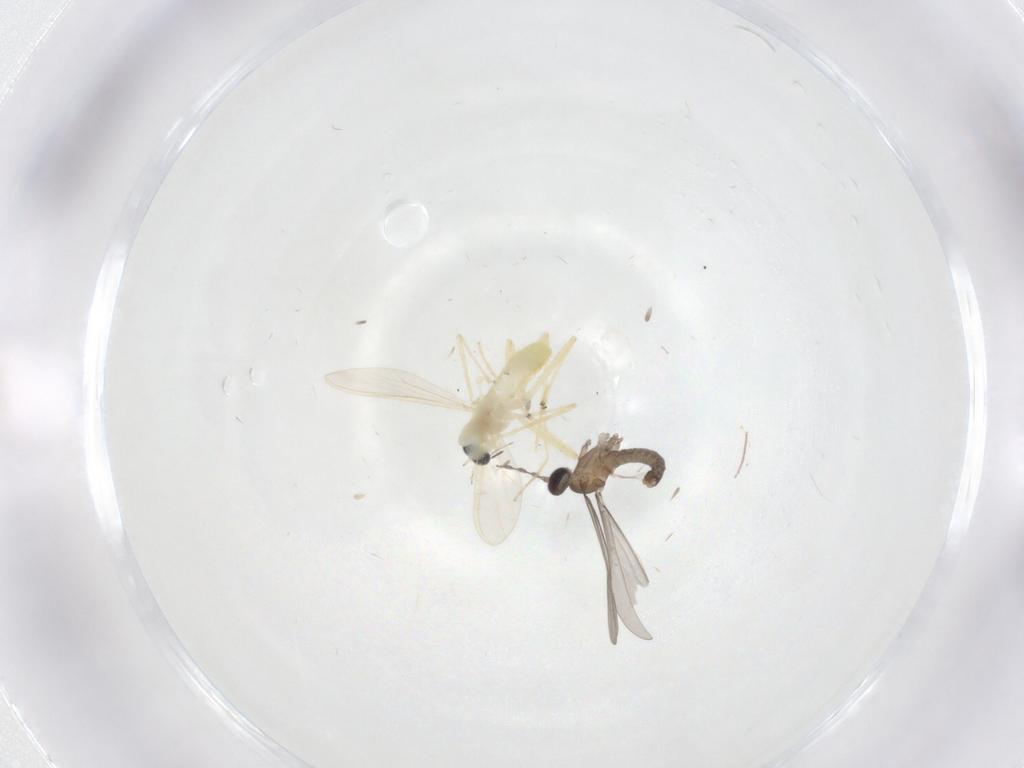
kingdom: Animalia
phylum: Arthropoda
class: Insecta
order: Diptera
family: Chironomidae
